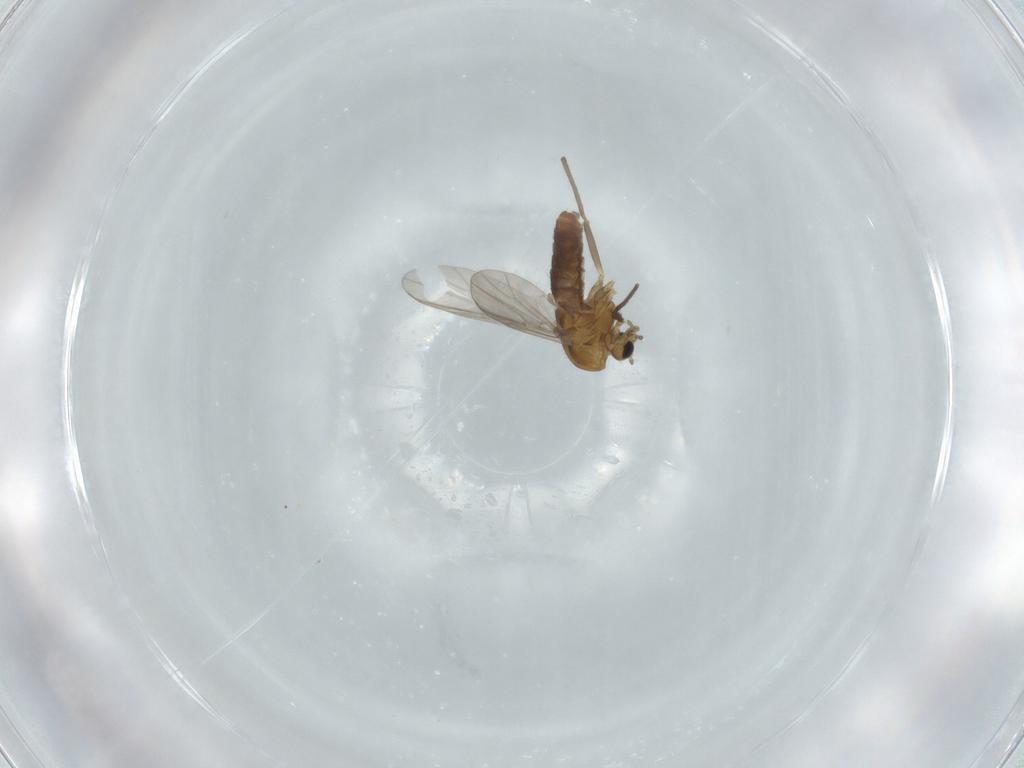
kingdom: Animalia
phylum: Arthropoda
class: Insecta
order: Diptera
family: Chironomidae
